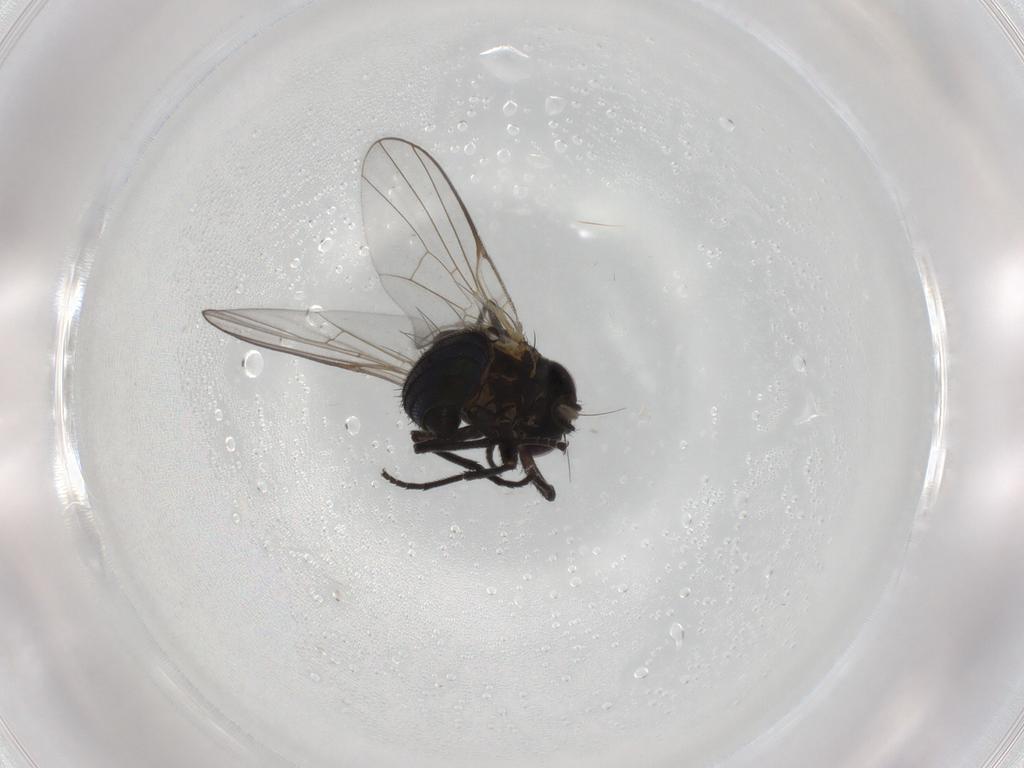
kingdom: Animalia
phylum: Arthropoda
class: Insecta
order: Diptera
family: Agromyzidae
